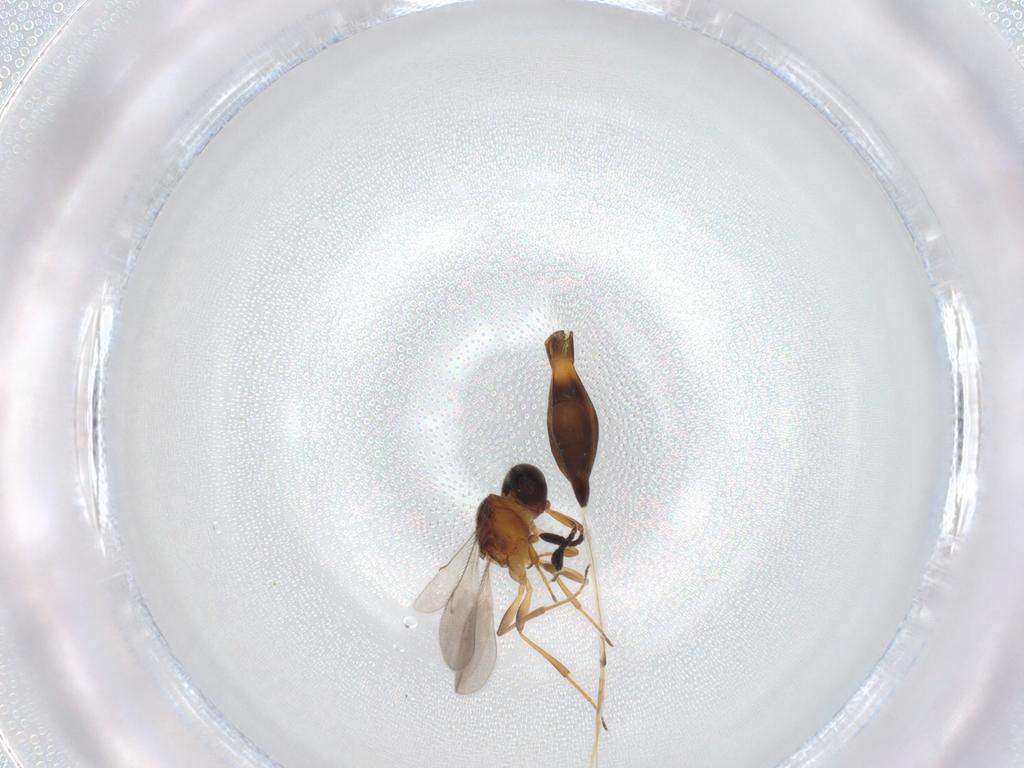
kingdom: Animalia
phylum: Arthropoda
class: Insecta
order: Hymenoptera
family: Scelionidae
